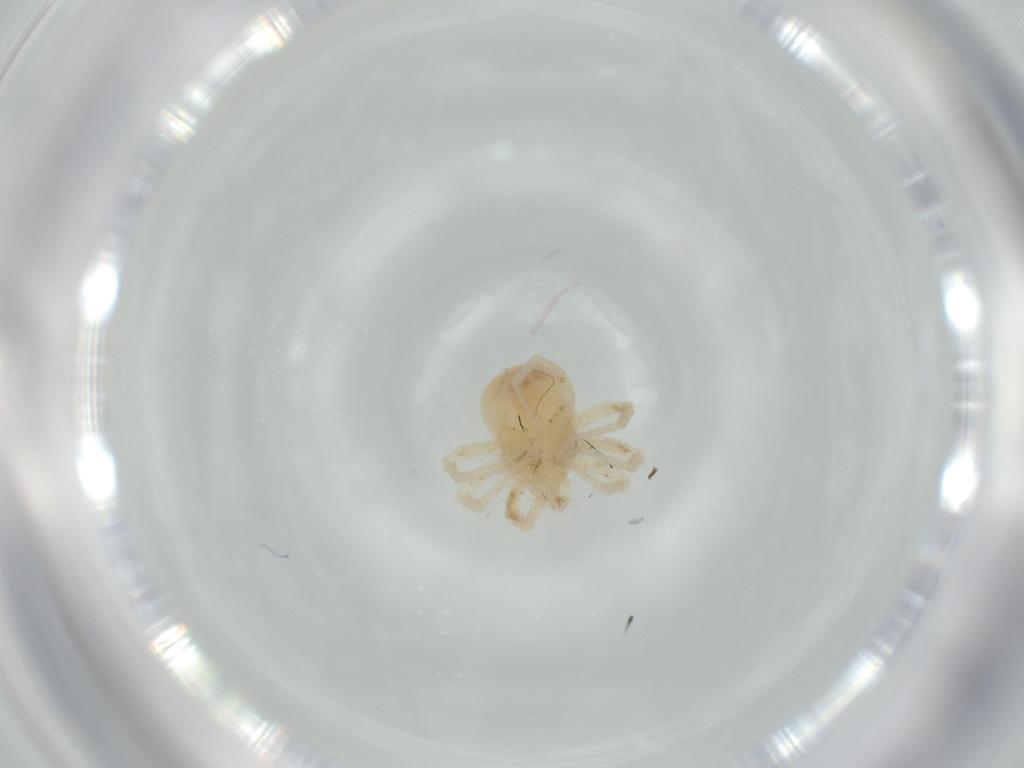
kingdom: Animalia
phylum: Arthropoda
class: Arachnida
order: Trombidiformes
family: Anystidae
